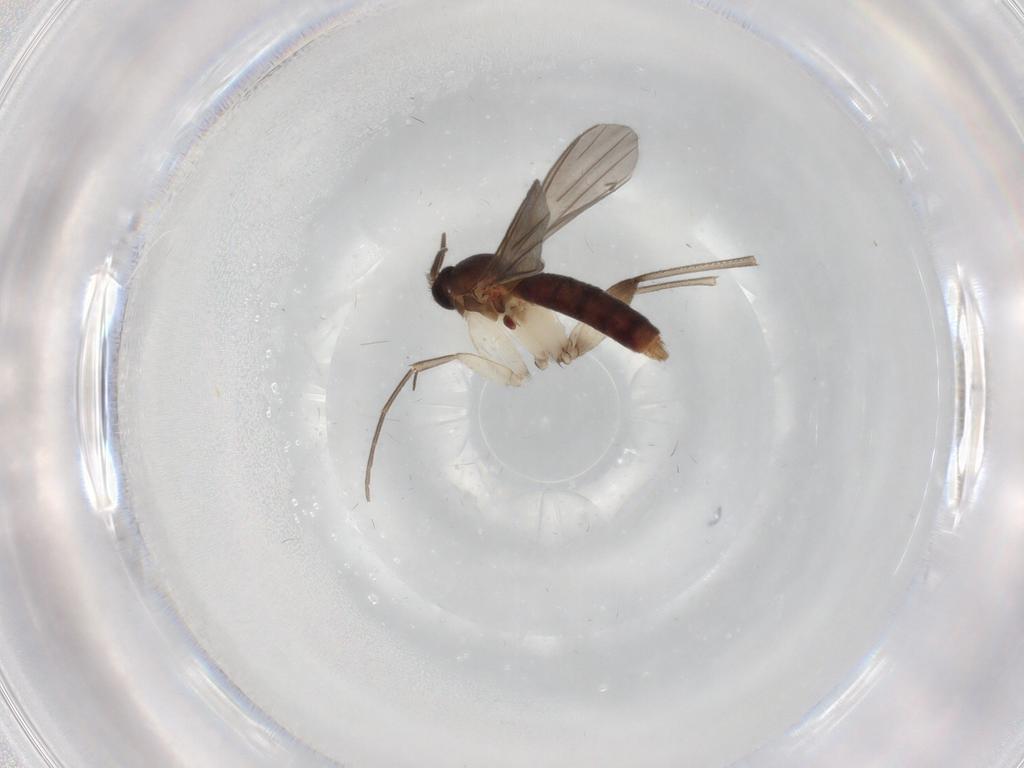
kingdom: Animalia
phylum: Arthropoda
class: Insecta
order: Diptera
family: Mycetophilidae
